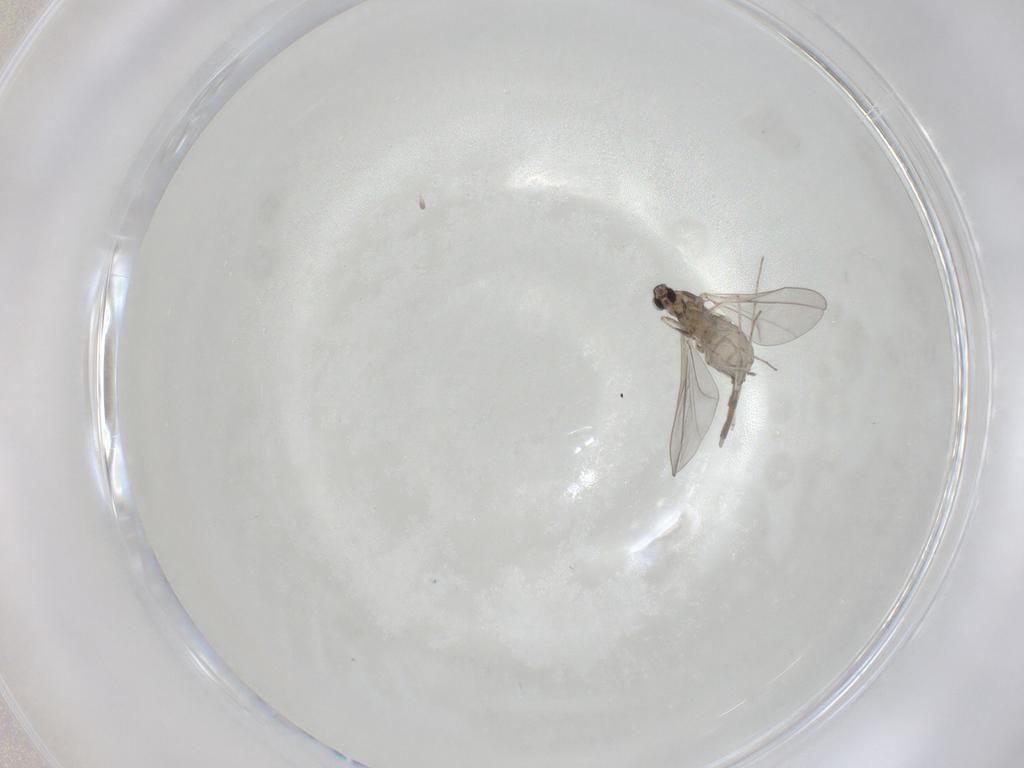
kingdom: Animalia
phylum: Arthropoda
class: Insecta
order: Diptera
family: Cecidomyiidae
